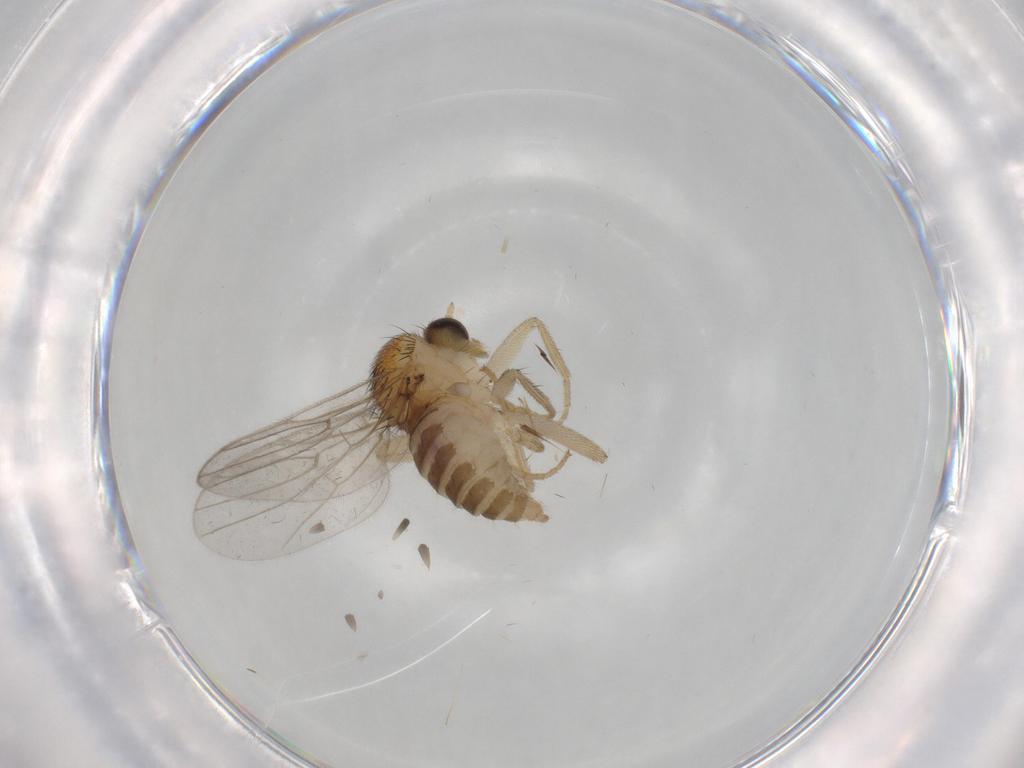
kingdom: Animalia
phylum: Arthropoda
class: Insecta
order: Diptera
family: Hybotidae
